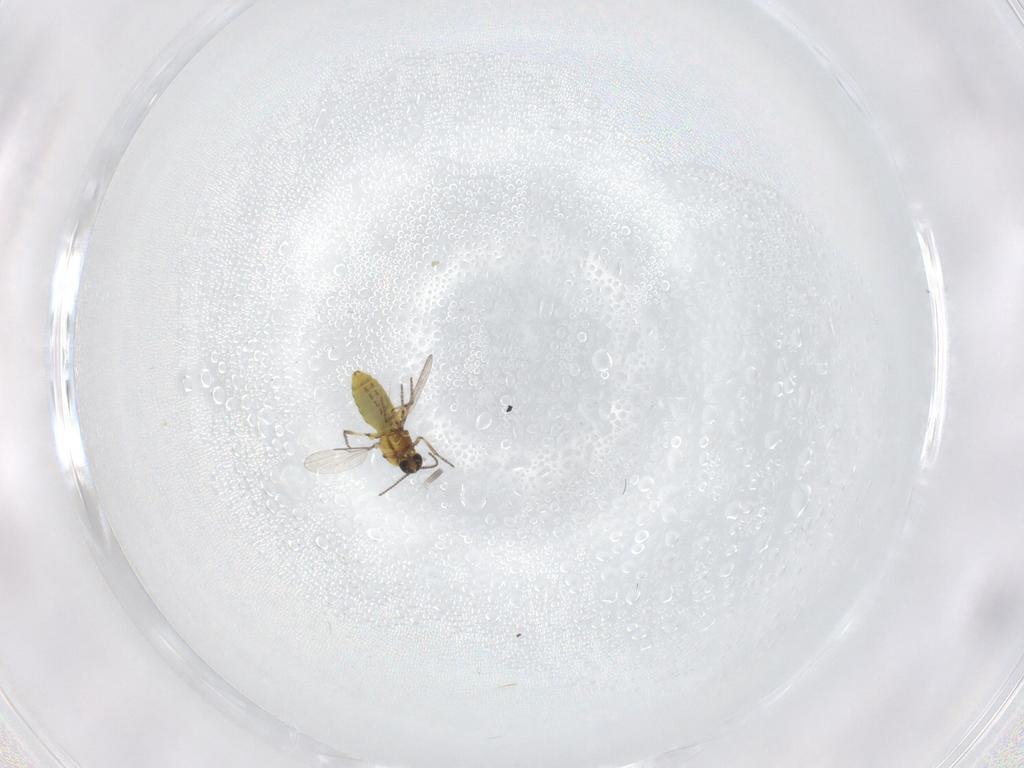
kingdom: Animalia
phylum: Arthropoda
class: Insecta
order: Diptera
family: Ceratopogonidae
